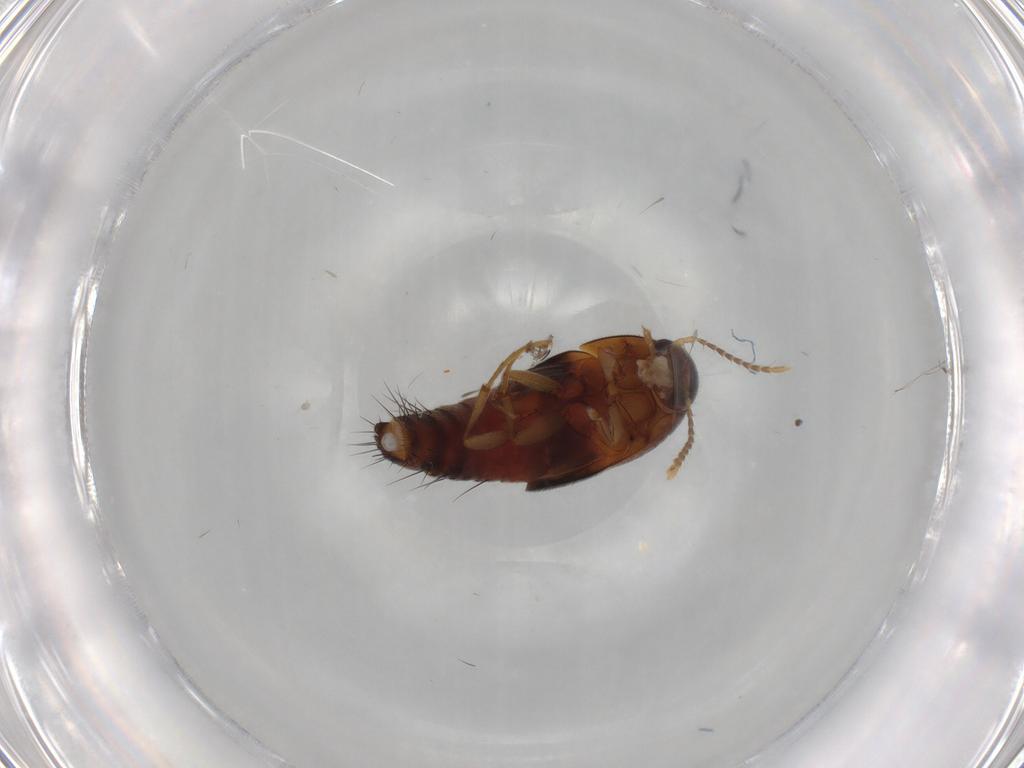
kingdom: Animalia
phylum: Arthropoda
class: Insecta
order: Coleoptera
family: Staphylinidae
